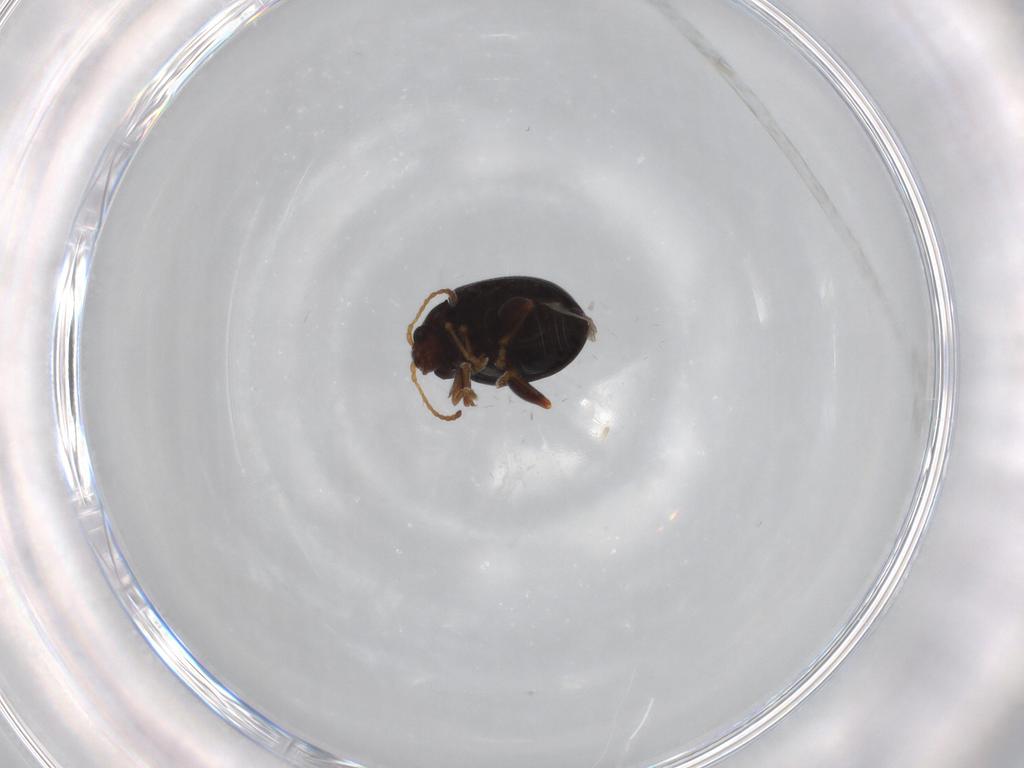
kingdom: Animalia
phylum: Arthropoda
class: Insecta
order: Coleoptera
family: Chrysomelidae
